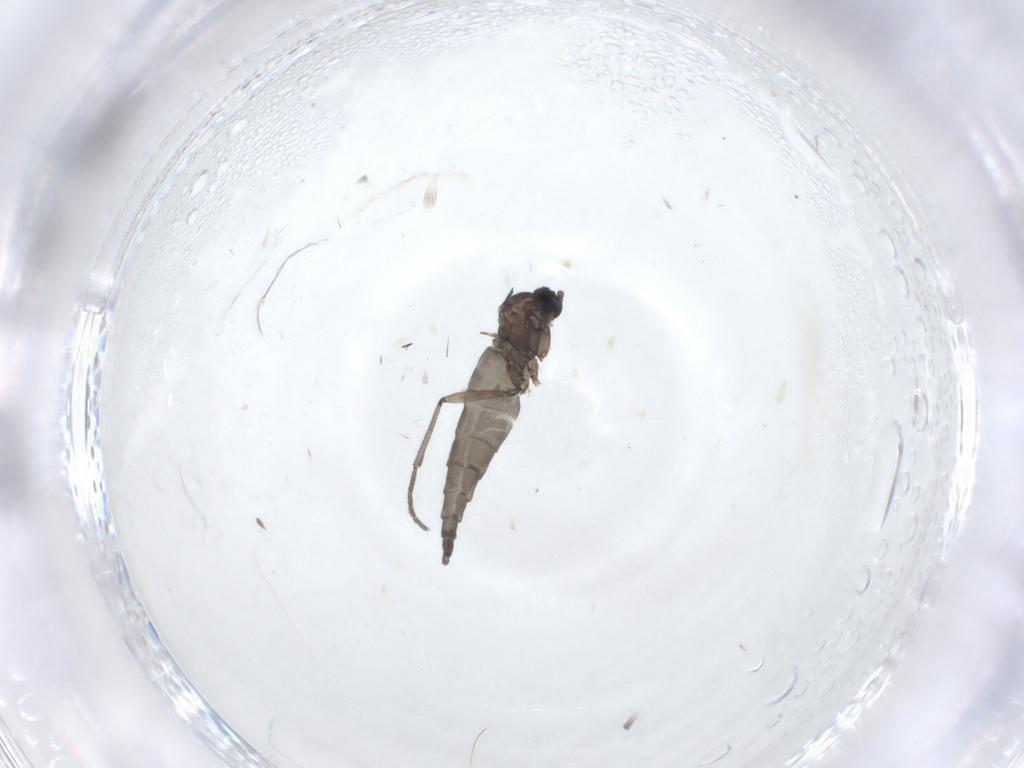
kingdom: Animalia
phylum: Arthropoda
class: Insecta
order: Diptera
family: Sciaridae
